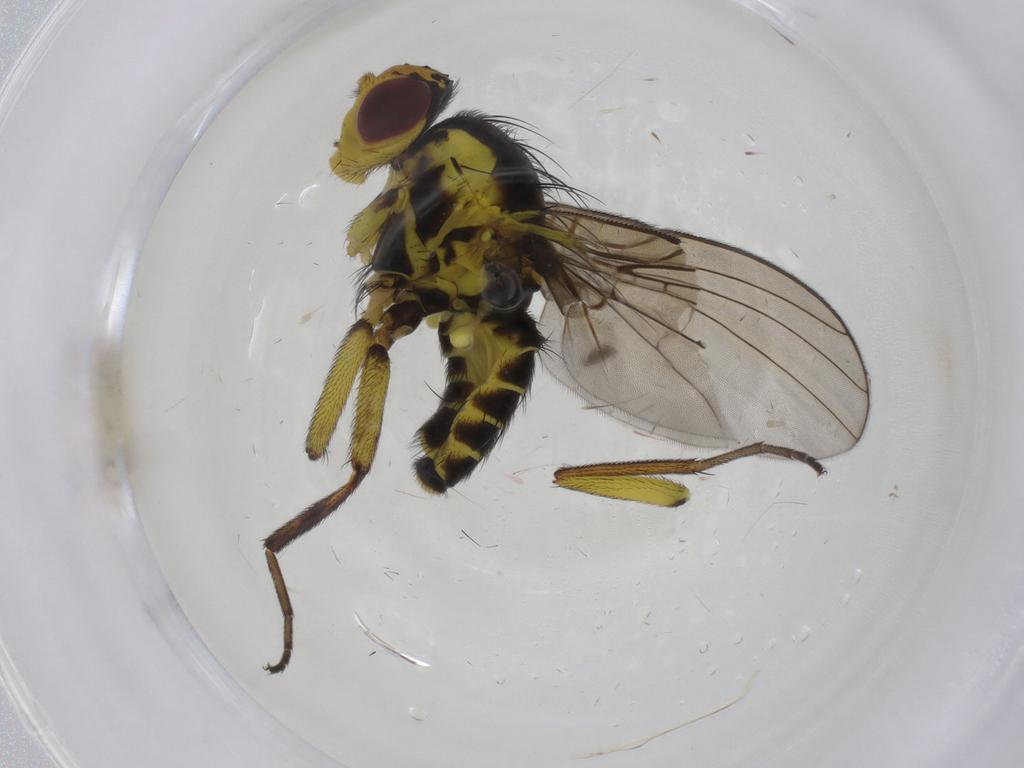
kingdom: Animalia
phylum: Arthropoda
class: Insecta
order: Diptera
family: Agromyzidae
